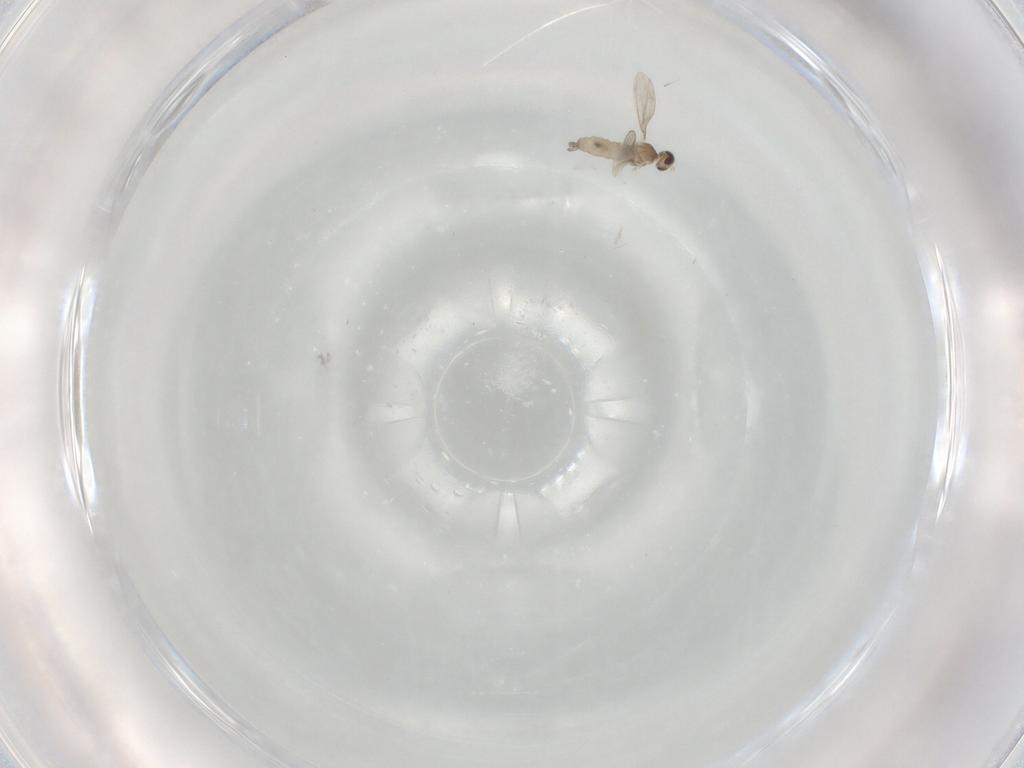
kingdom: Animalia
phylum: Arthropoda
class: Insecta
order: Diptera
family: Cecidomyiidae
